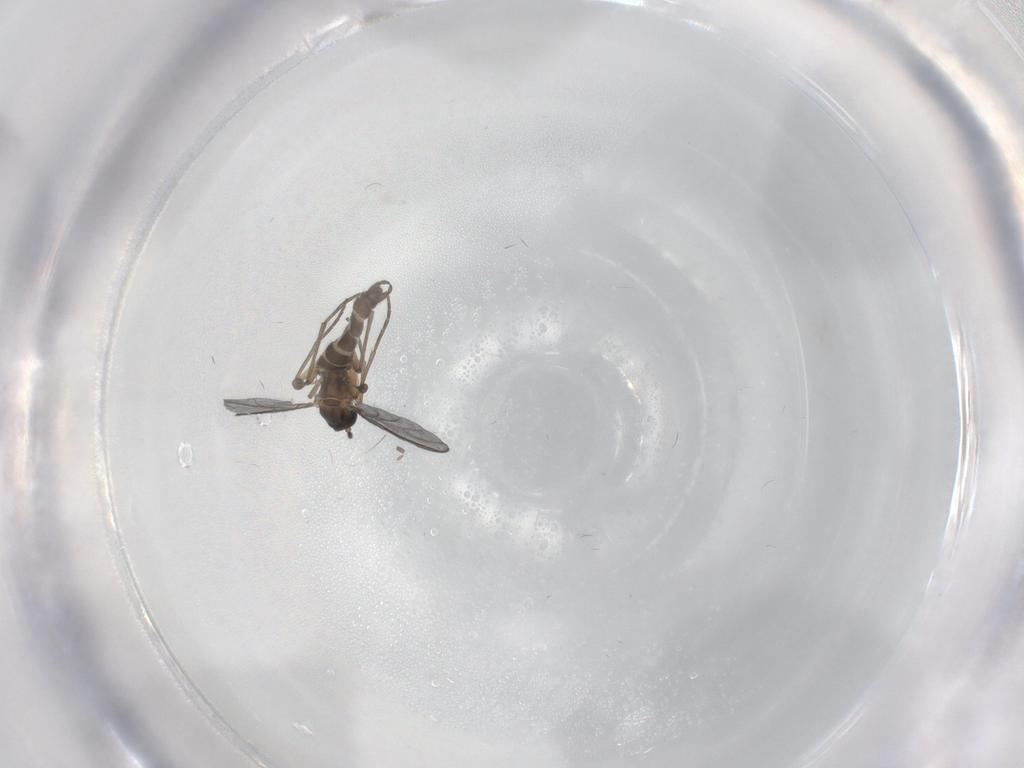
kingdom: Animalia
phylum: Arthropoda
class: Insecta
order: Diptera
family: Sciaridae
